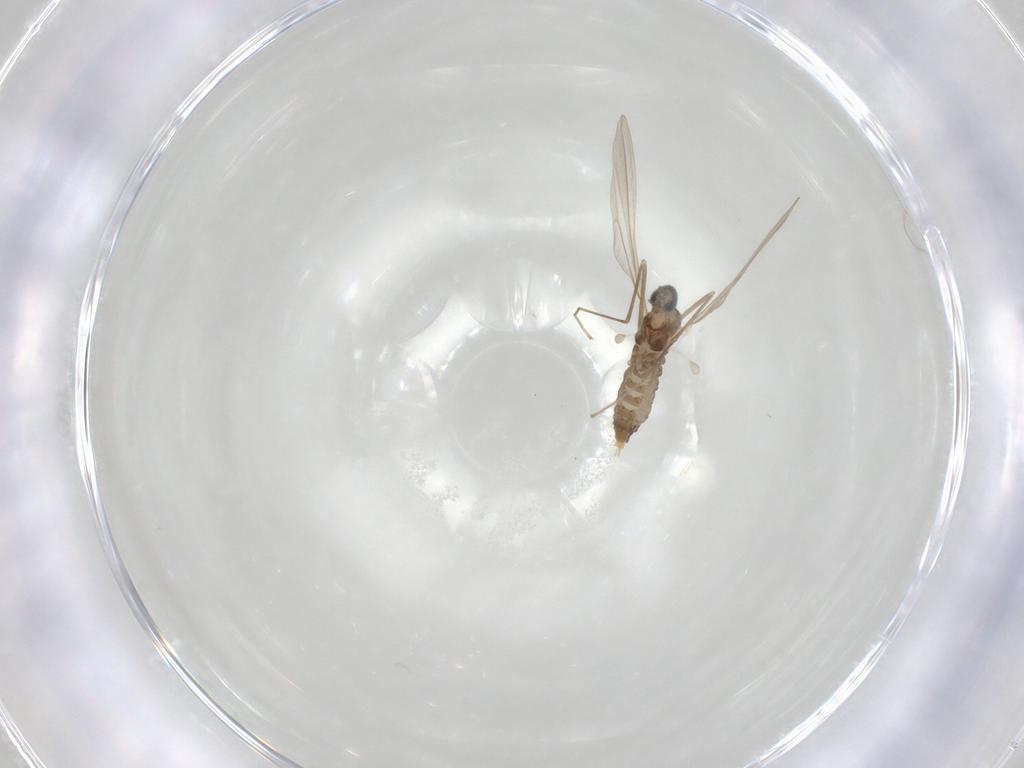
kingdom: Animalia
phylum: Arthropoda
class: Insecta
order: Diptera
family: Cecidomyiidae
